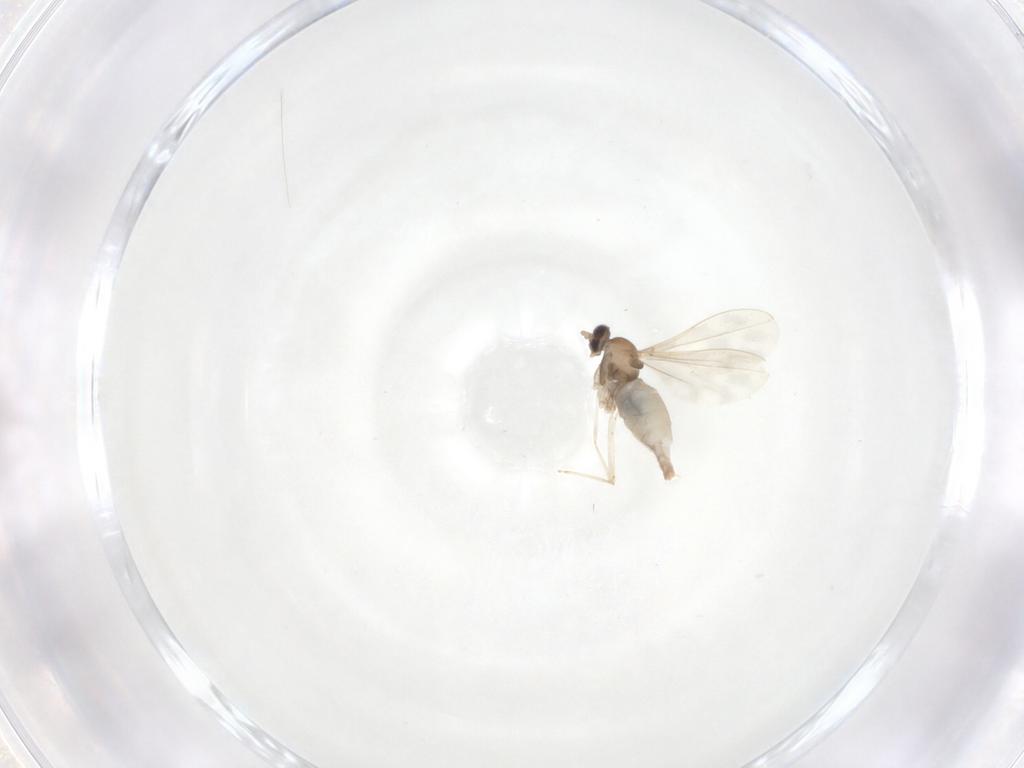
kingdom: Animalia
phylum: Arthropoda
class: Insecta
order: Diptera
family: Cecidomyiidae
